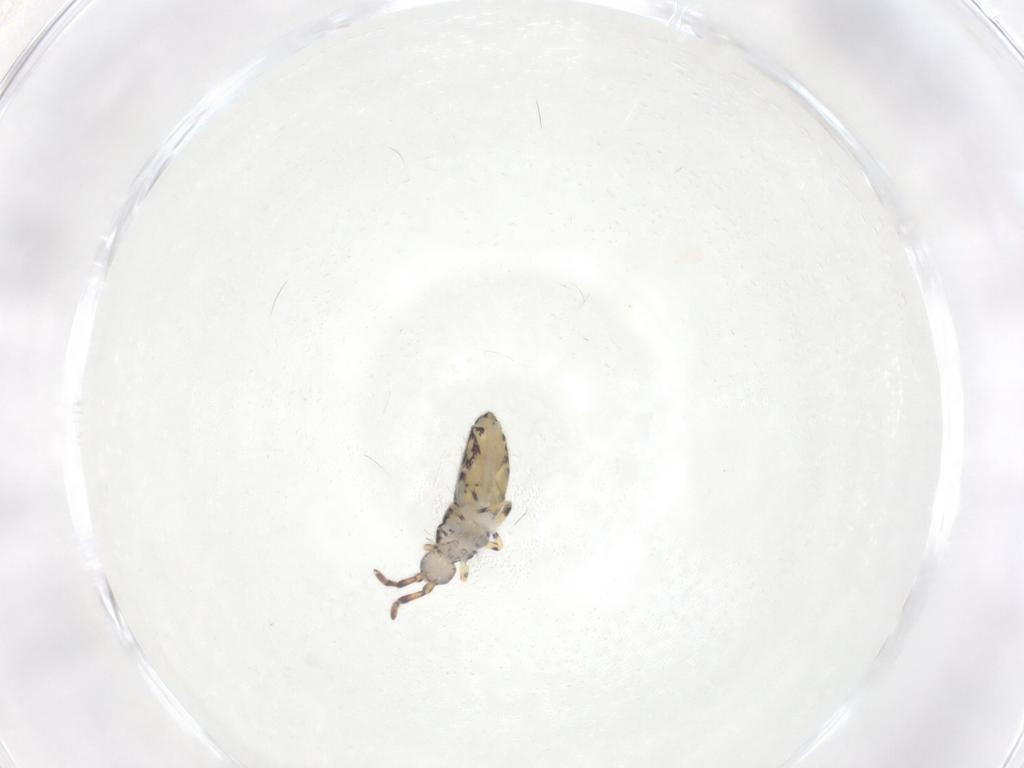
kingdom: Animalia
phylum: Arthropoda
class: Collembola
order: Entomobryomorpha
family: Entomobryidae
